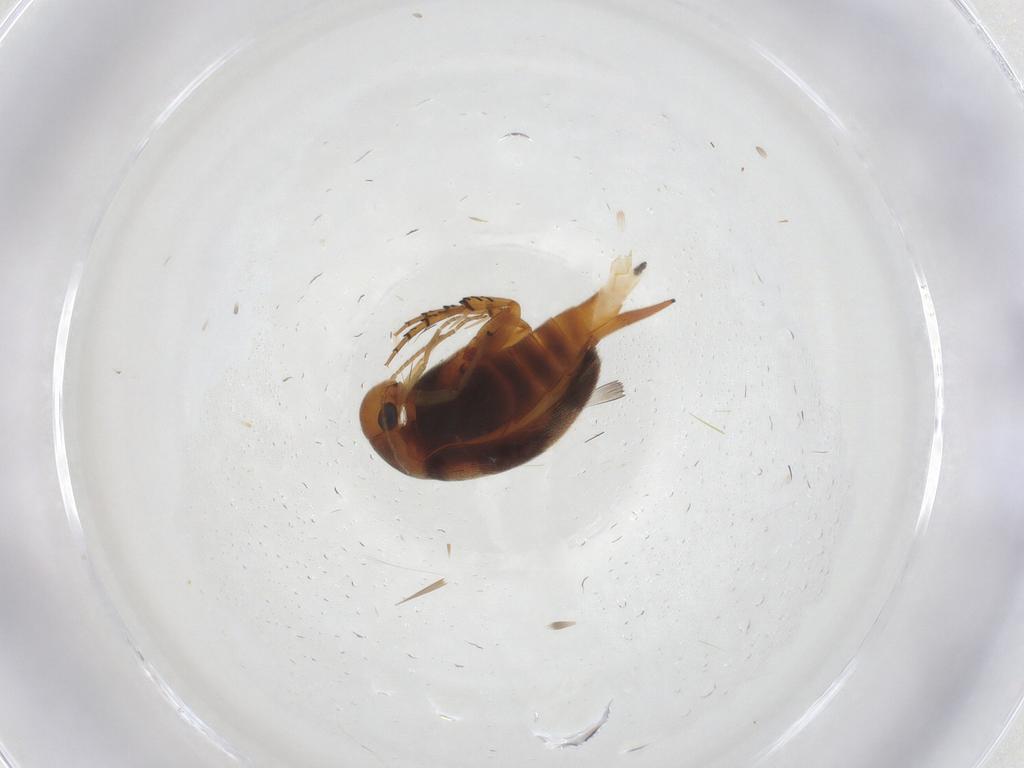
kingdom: Animalia
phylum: Arthropoda
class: Insecta
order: Coleoptera
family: Mordellidae
